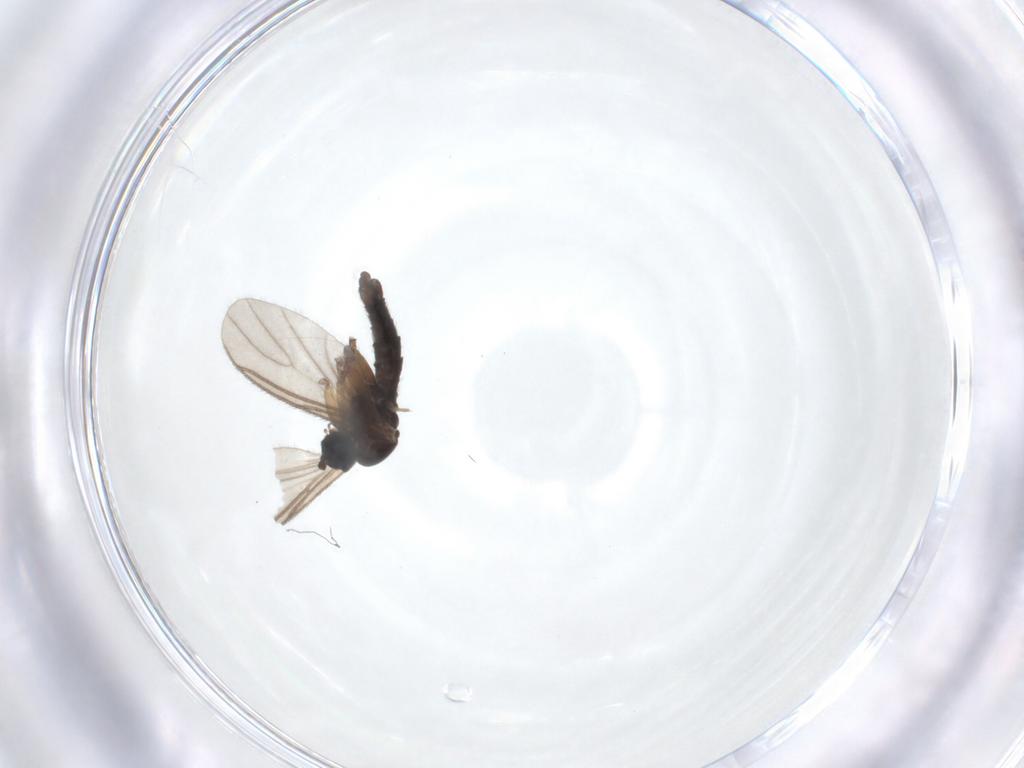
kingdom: Animalia
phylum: Arthropoda
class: Insecta
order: Diptera
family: Sciaridae
